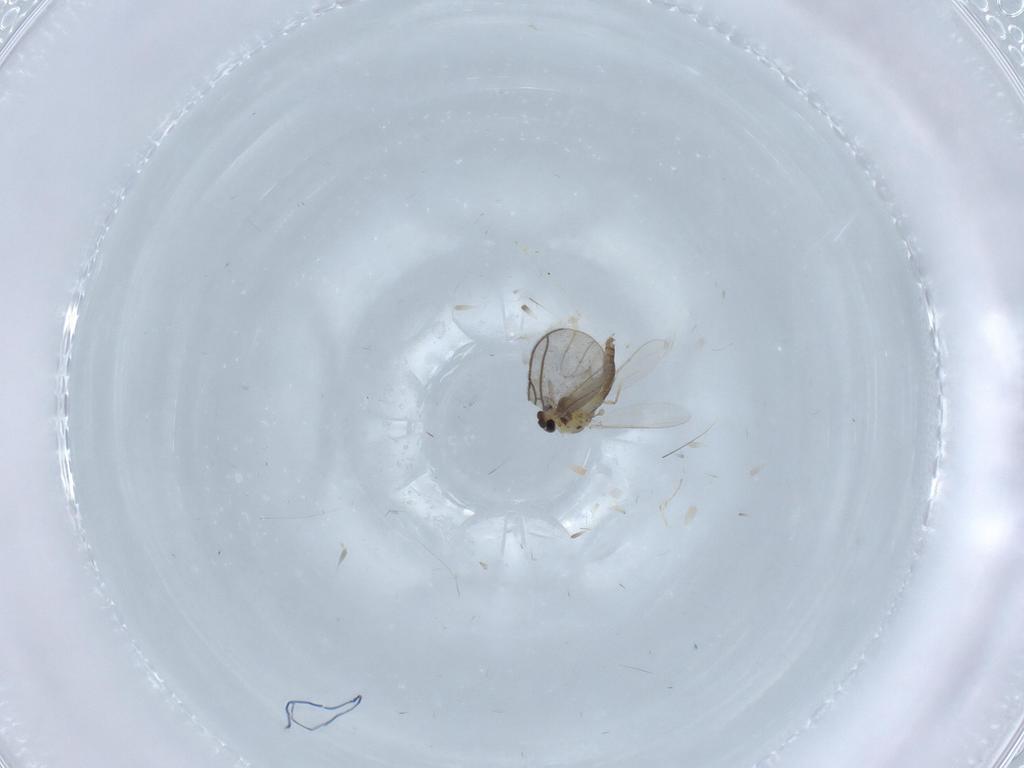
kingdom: Animalia
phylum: Arthropoda
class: Insecta
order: Diptera
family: Sciaridae
